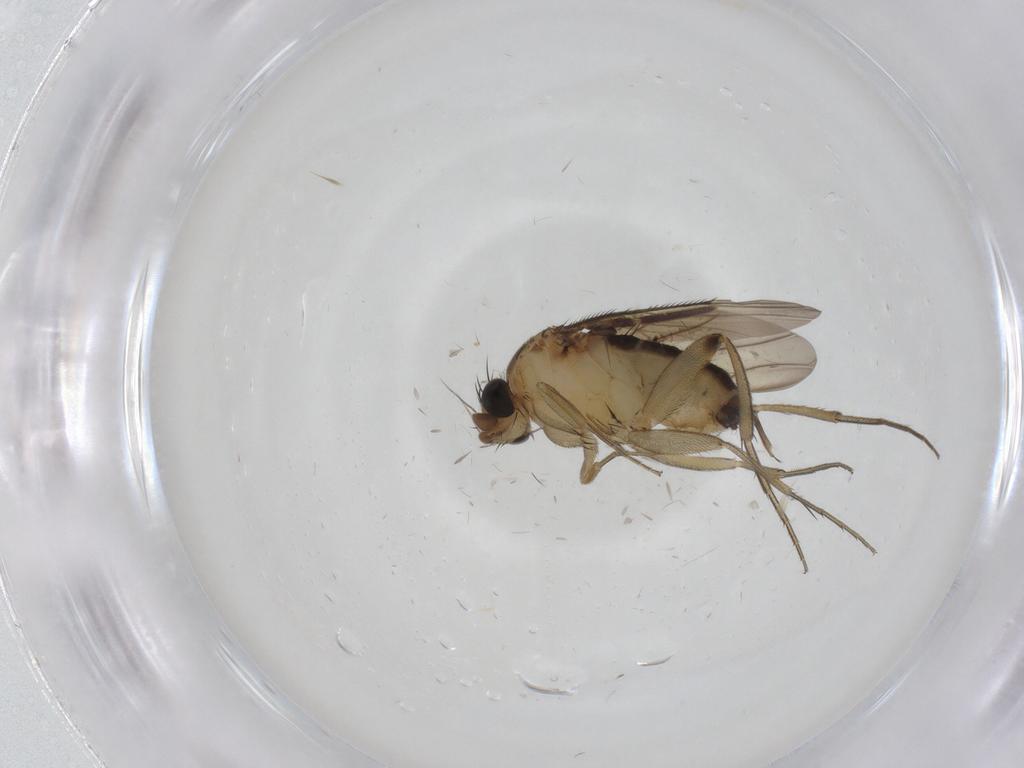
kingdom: Animalia
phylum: Arthropoda
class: Insecta
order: Diptera
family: Phoridae
